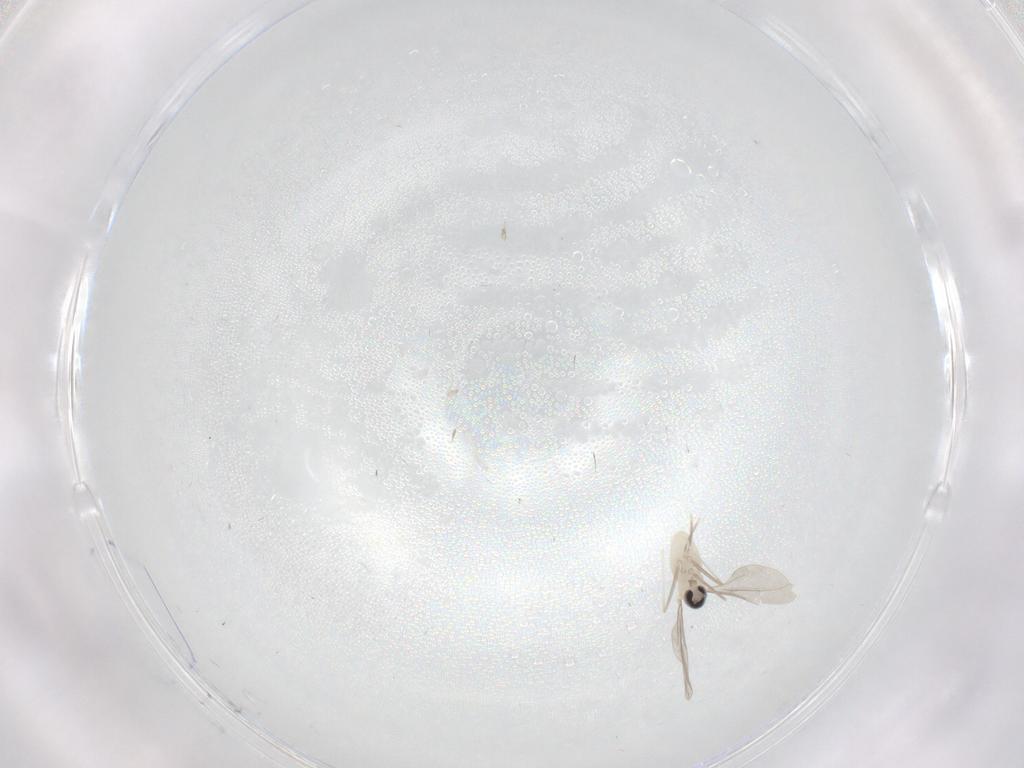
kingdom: Animalia
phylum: Arthropoda
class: Insecta
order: Diptera
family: Cecidomyiidae
